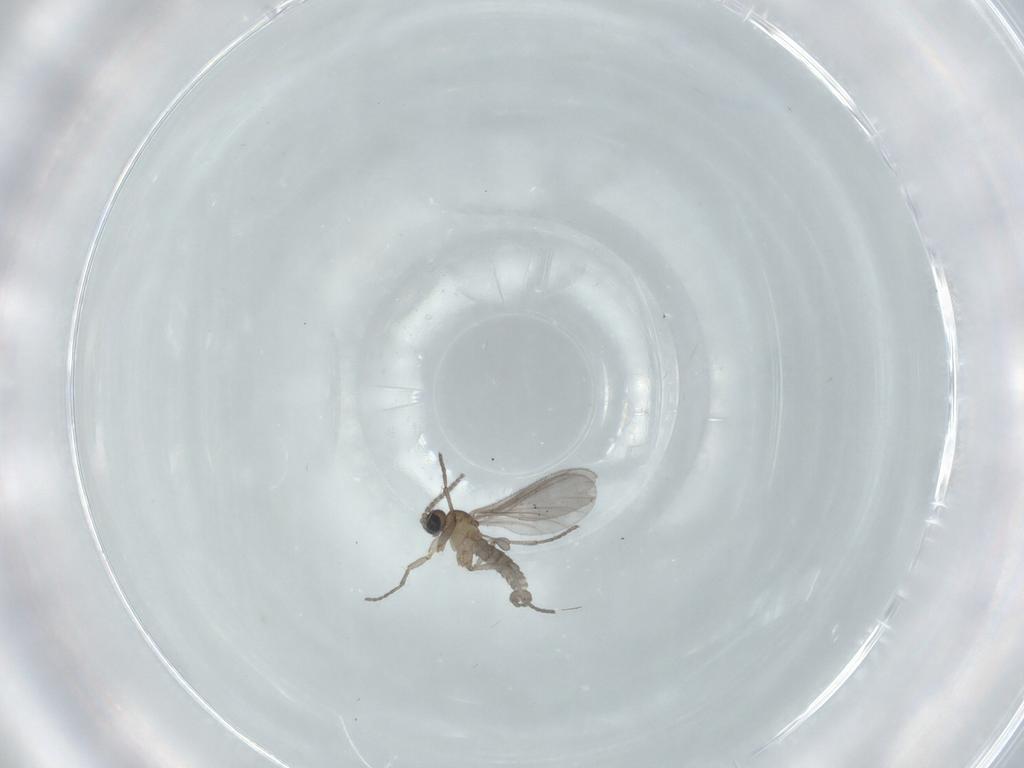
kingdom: Animalia
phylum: Arthropoda
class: Insecta
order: Diptera
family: Cecidomyiidae
